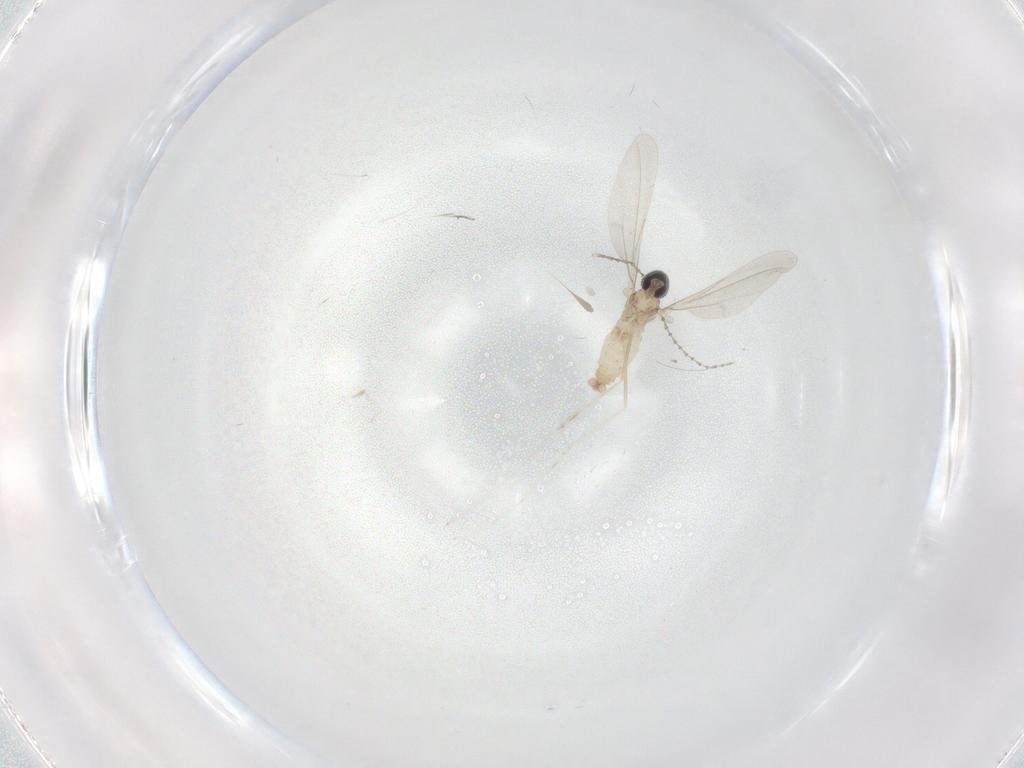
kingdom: Animalia
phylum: Arthropoda
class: Insecta
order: Diptera
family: Cecidomyiidae
